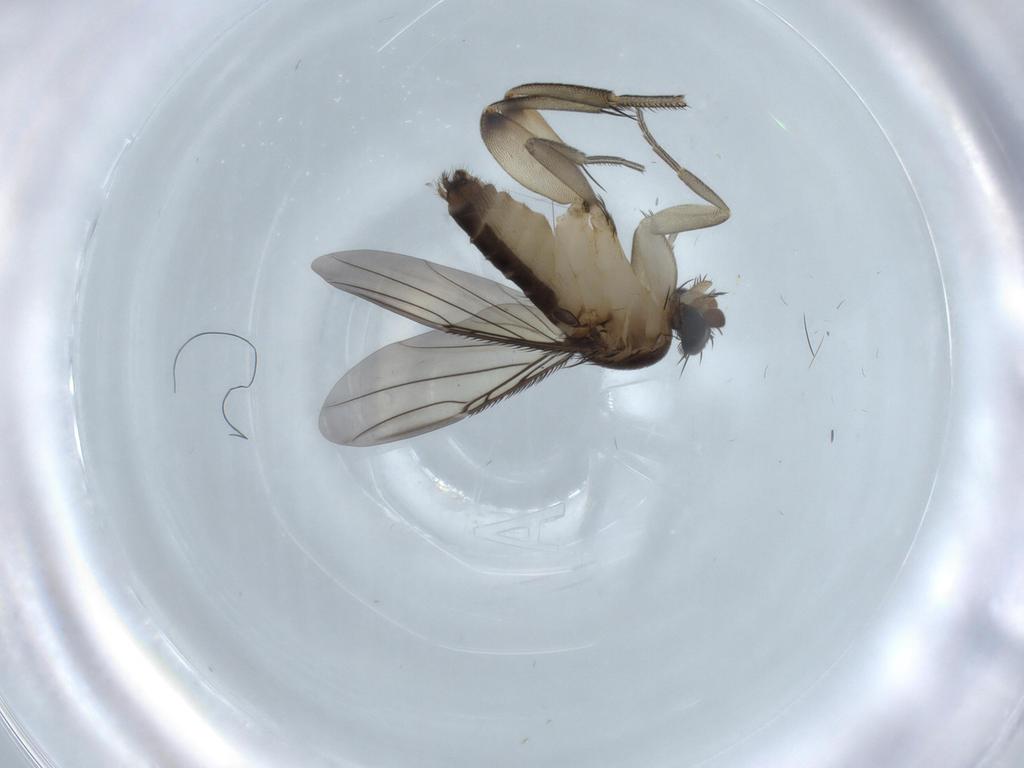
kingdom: Animalia
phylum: Arthropoda
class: Insecta
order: Diptera
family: Phoridae
